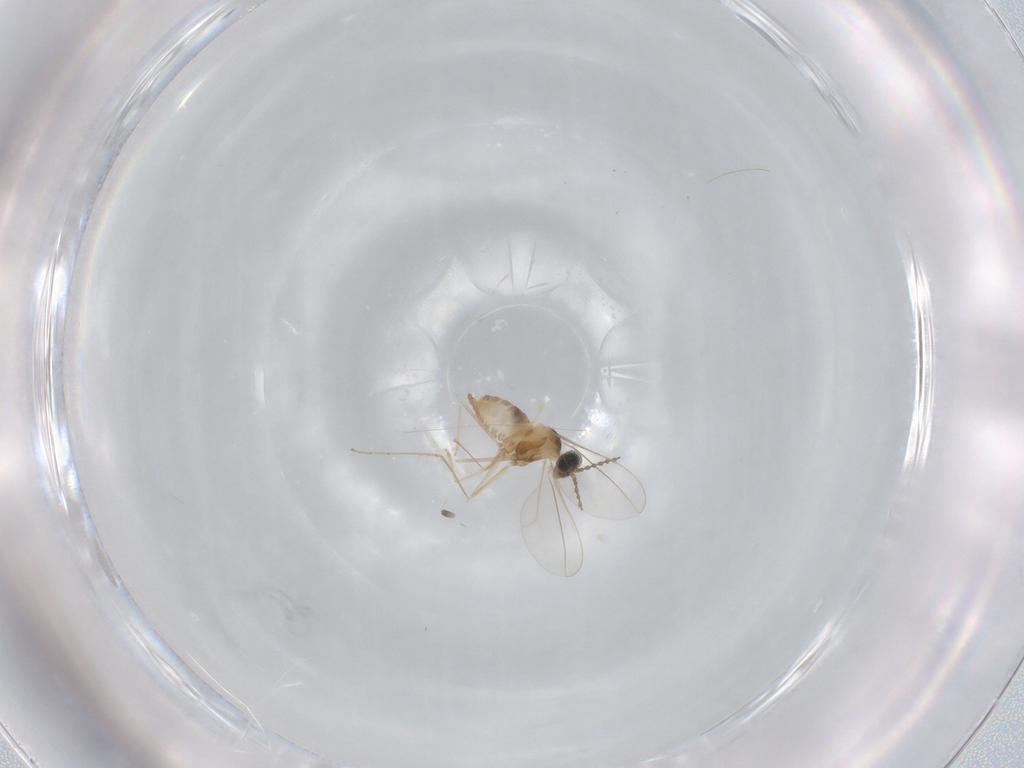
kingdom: Animalia
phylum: Arthropoda
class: Insecta
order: Diptera
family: Cecidomyiidae
